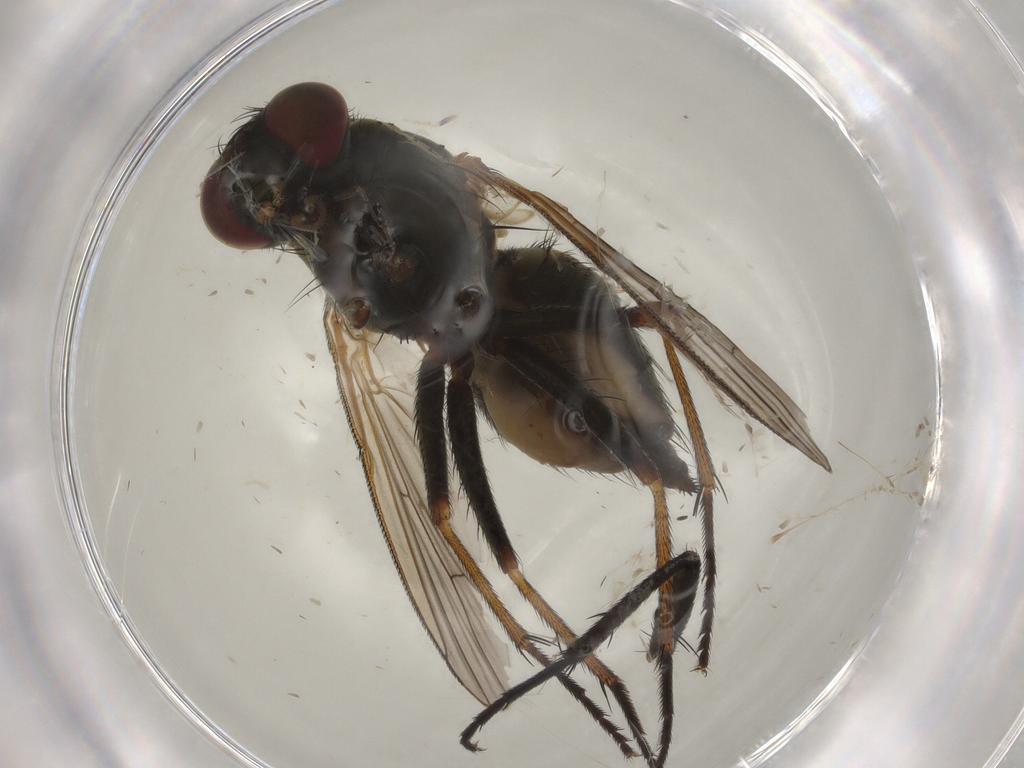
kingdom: Animalia
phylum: Arthropoda
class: Insecta
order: Diptera
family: Muscidae
